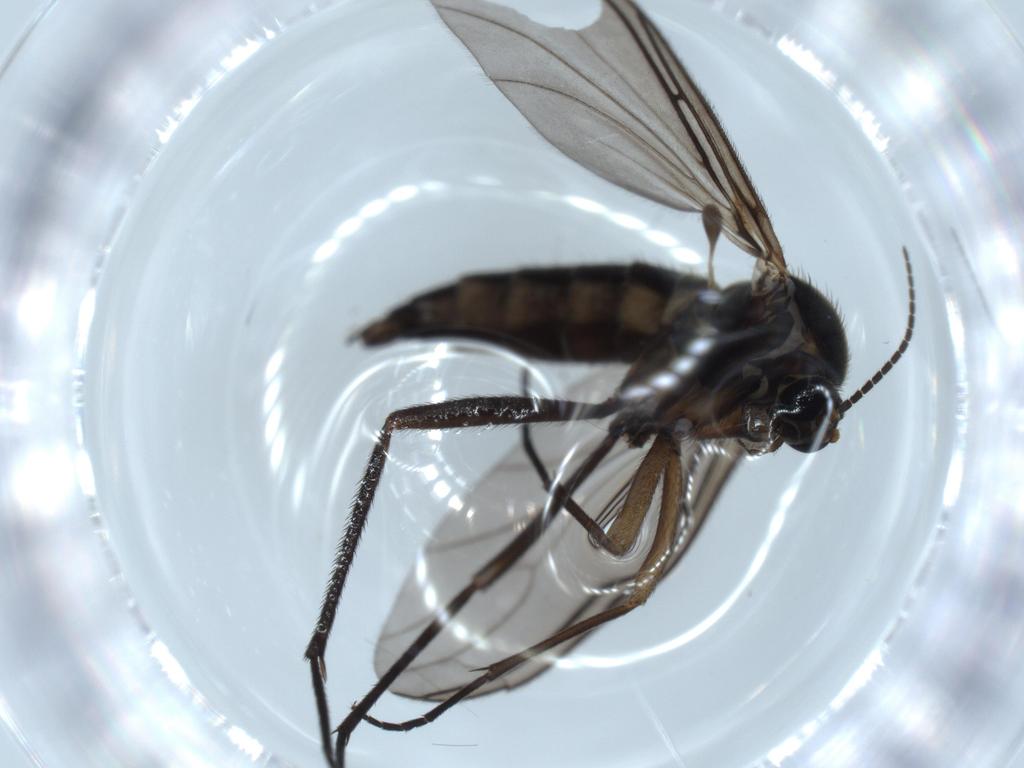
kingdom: Animalia
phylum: Arthropoda
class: Insecta
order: Diptera
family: Sciaridae
